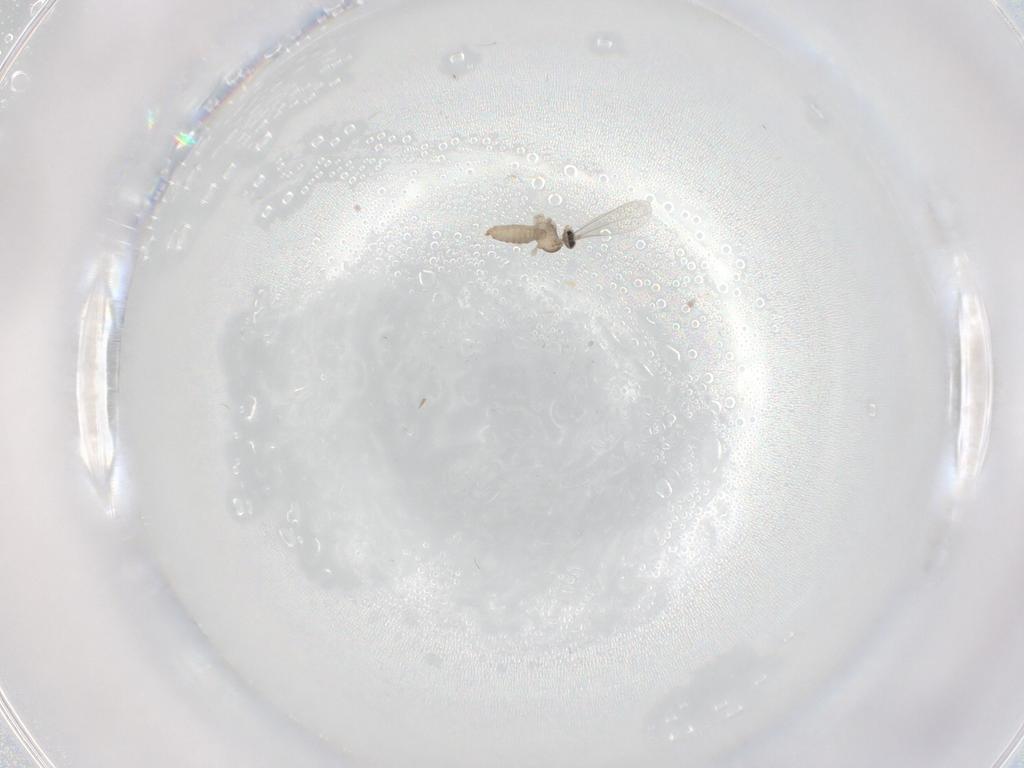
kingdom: Animalia
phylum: Arthropoda
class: Insecta
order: Diptera
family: Cecidomyiidae
